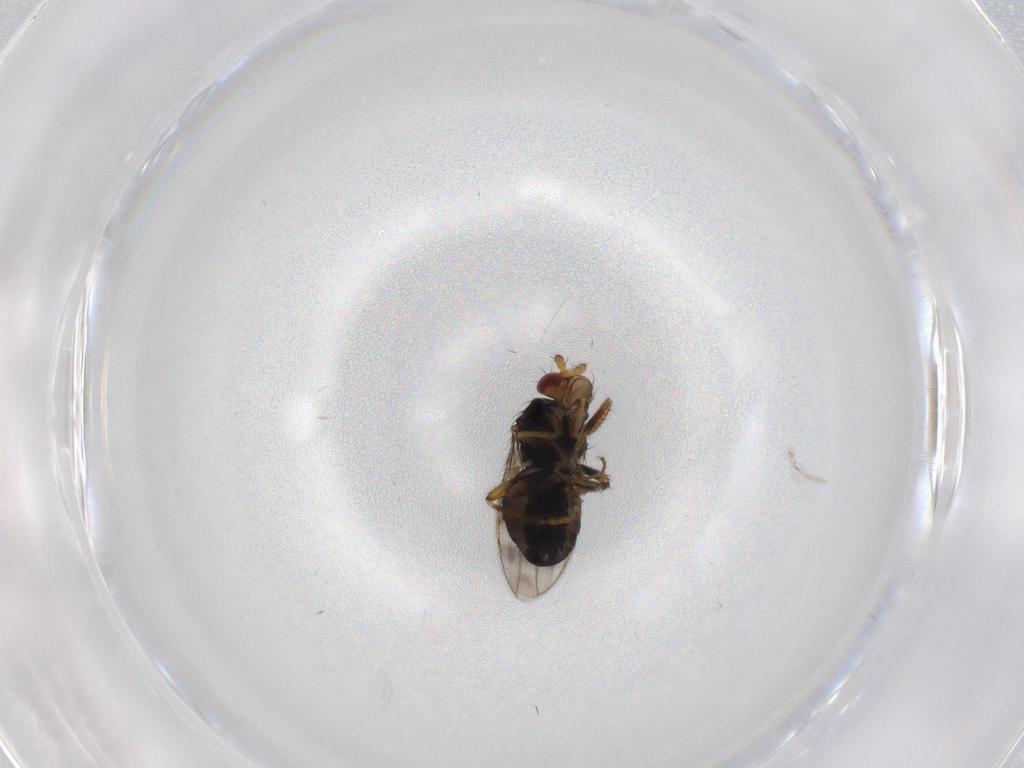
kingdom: Animalia
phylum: Arthropoda
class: Insecta
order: Diptera
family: Sphaeroceridae
